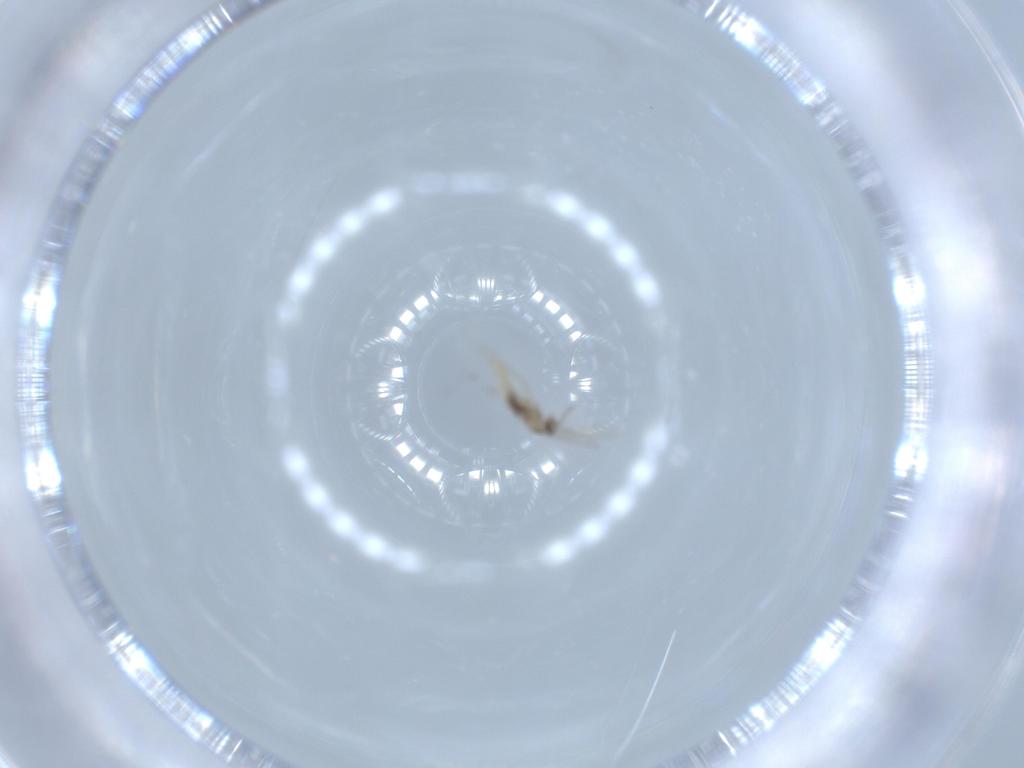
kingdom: Animalia
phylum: Arthropoda
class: Insecta
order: Diptera
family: Cecidomyiidae
